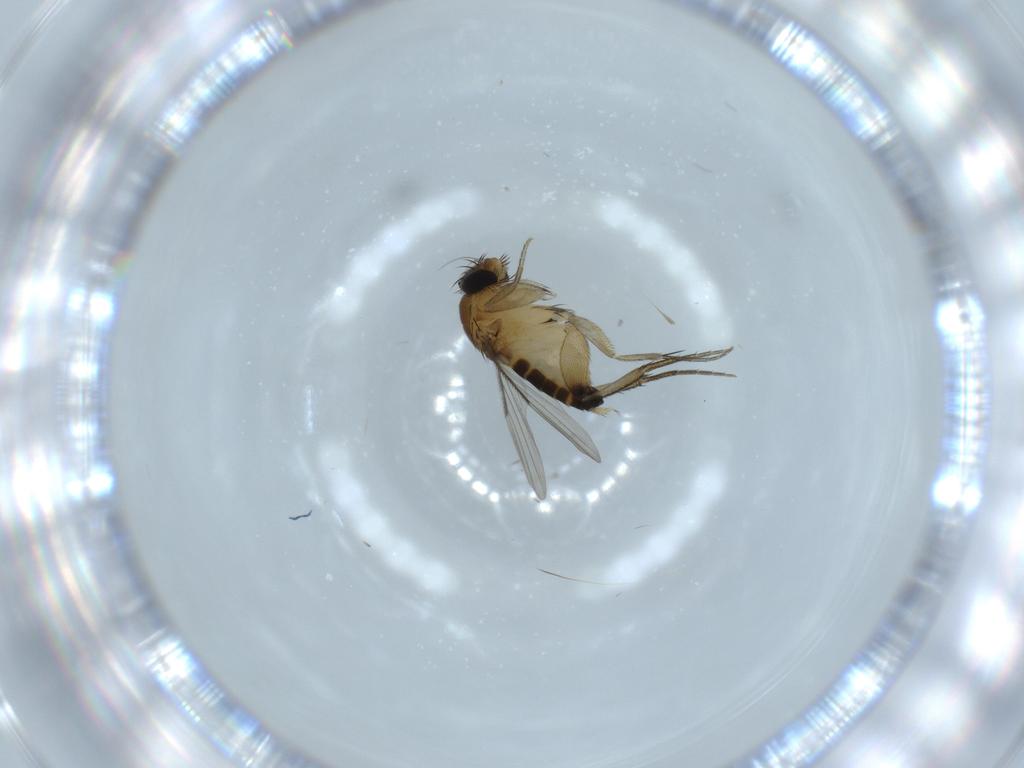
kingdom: Animalia
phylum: Arthropoda
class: Insecta
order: Diptera
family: Phoridae
